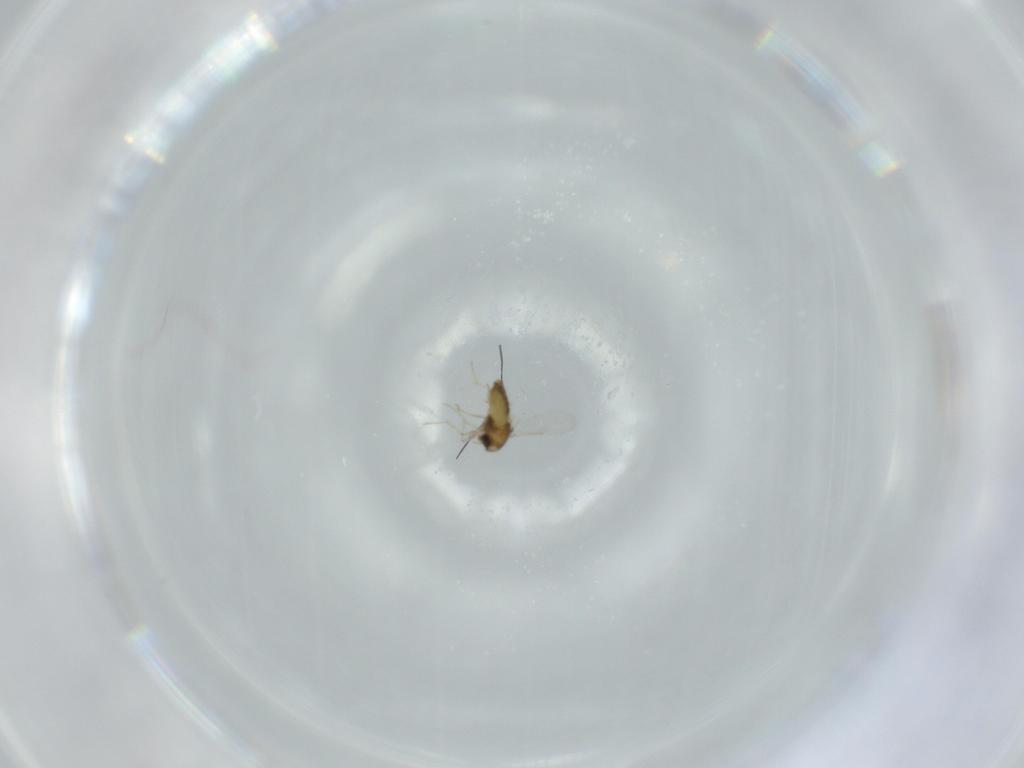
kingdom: Animalia
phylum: Arthropoda
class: Insecta
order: Diptera
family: Chironomidae
